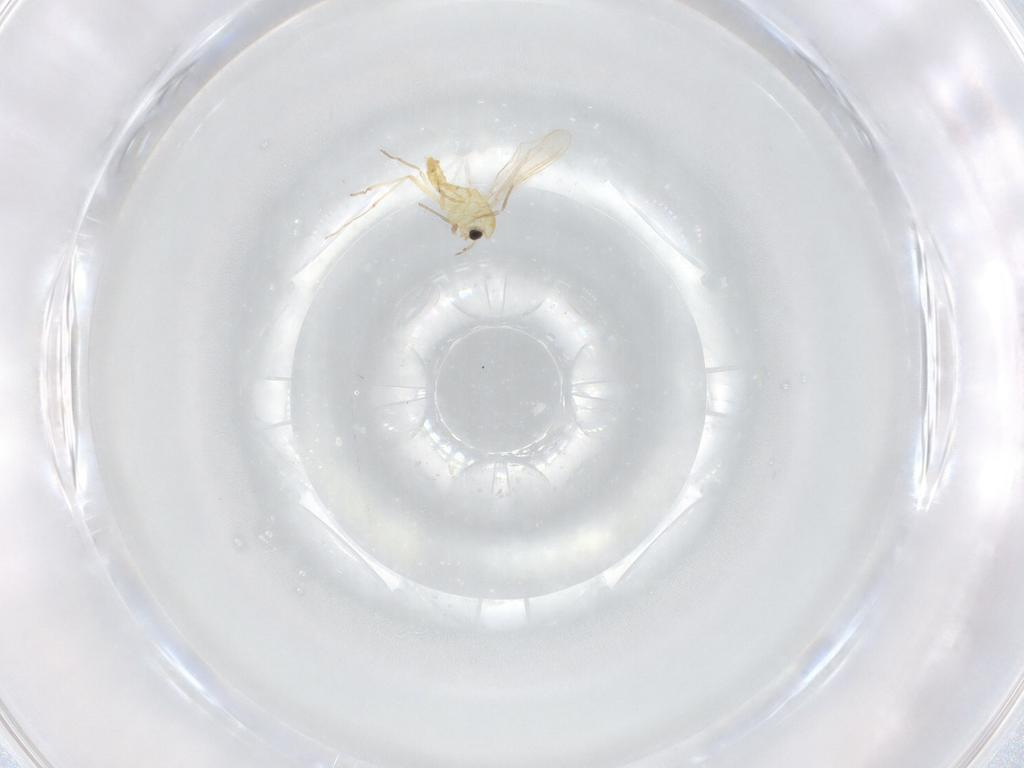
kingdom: Animalia
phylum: Arthropoda
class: Insecta
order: Diptera
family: Chironomidae
